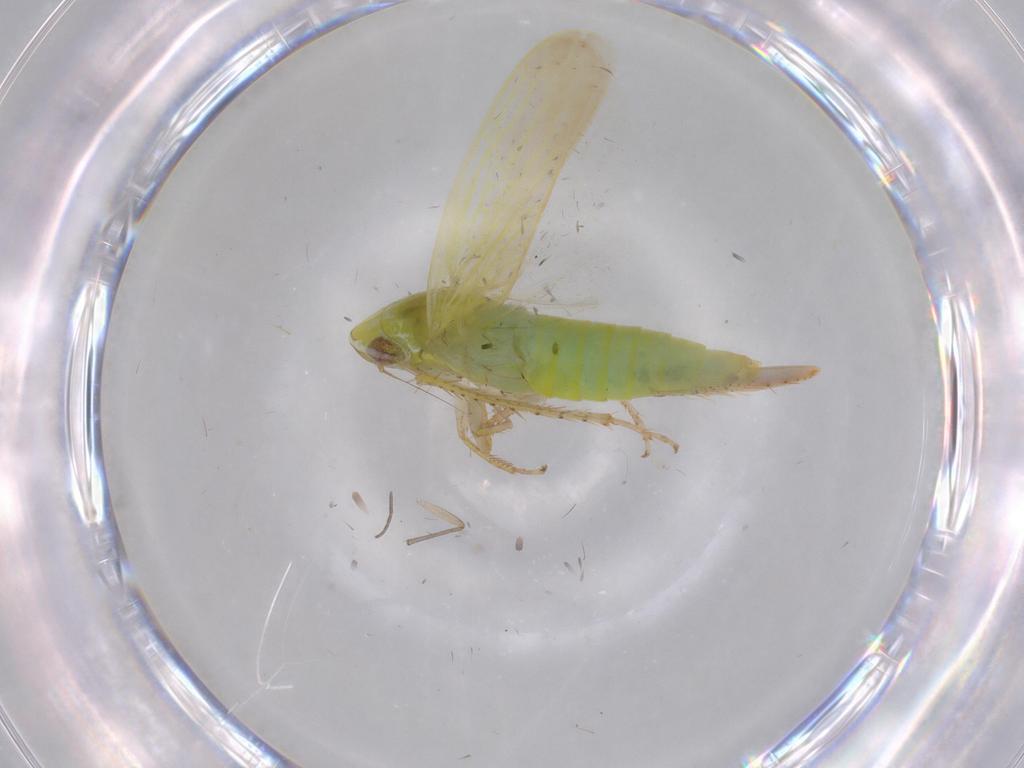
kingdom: Animalia
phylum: Arthropoda
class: Insecta
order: Hemiptera
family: Cicadellidae
